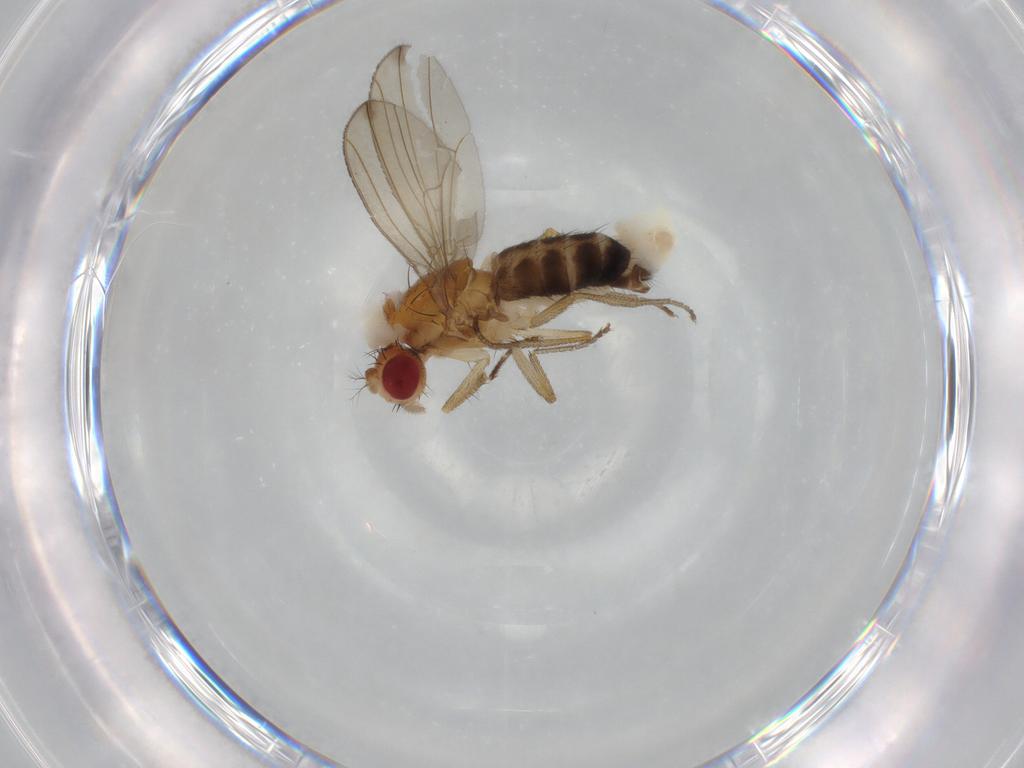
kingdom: Animalia
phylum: Arthropoda
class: Insecta
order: Diptera
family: Drosophilidae
